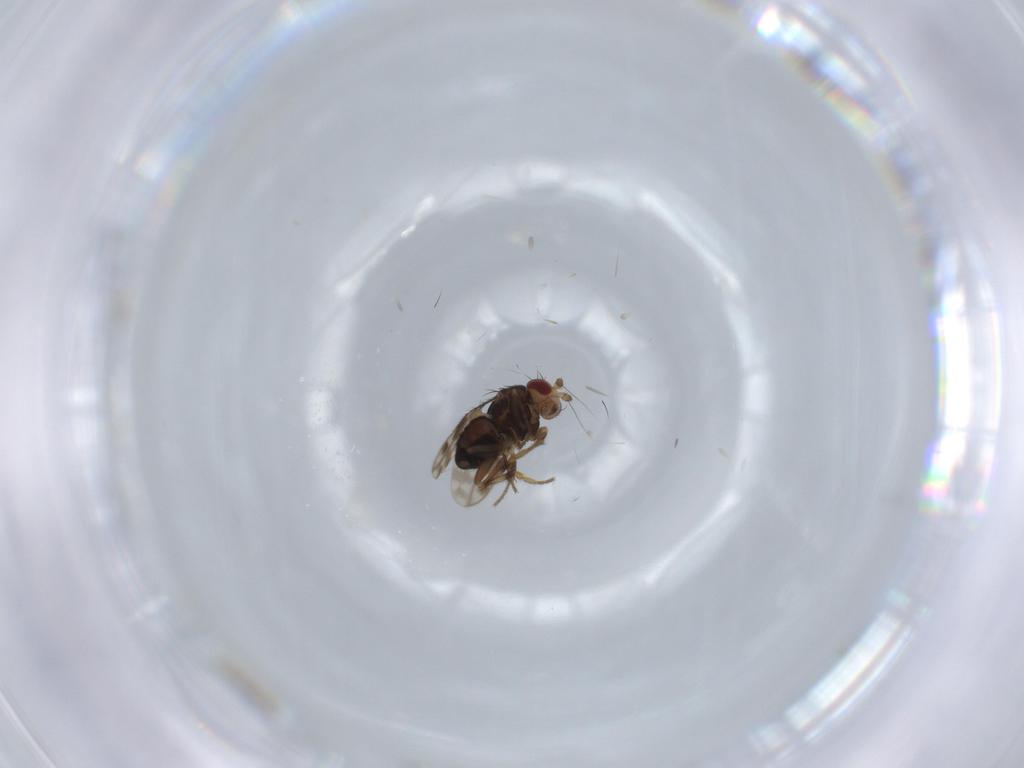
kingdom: Animalia
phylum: Arthropoda
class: Insecta
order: Diptera
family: Sphaeroceridae
